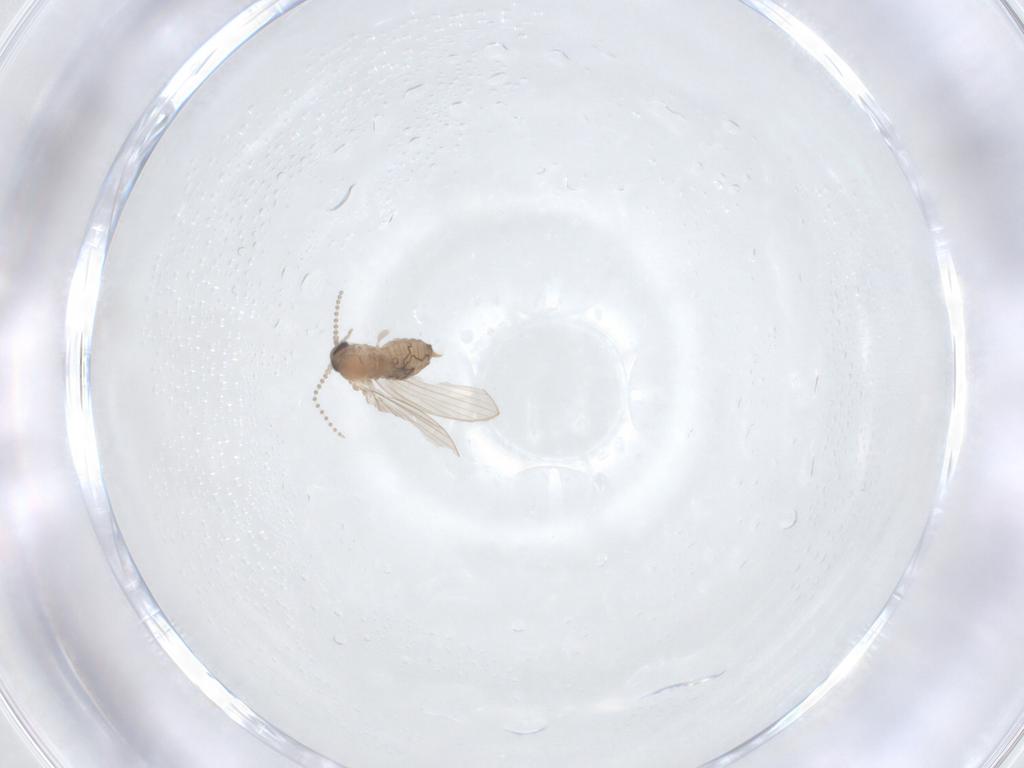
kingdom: Animalia
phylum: Arthropoda
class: Insecta
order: Diptera
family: Psychodidae
